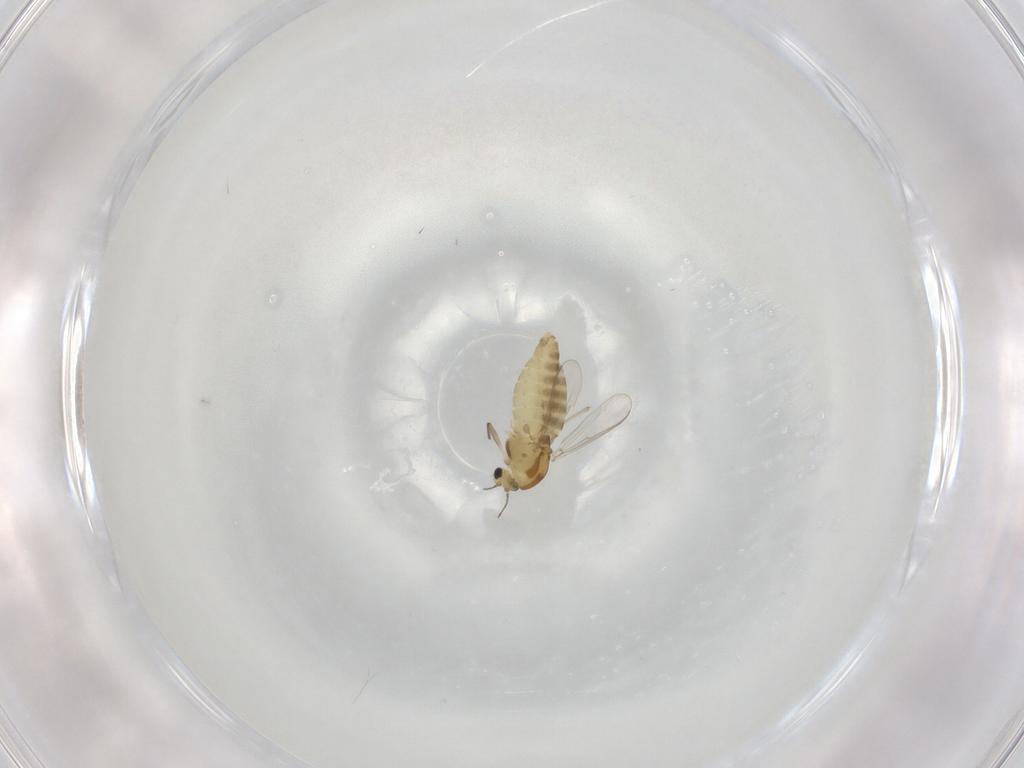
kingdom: Animalia
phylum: Arthropoda
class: Insecta
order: Diptera
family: Chironomidae
